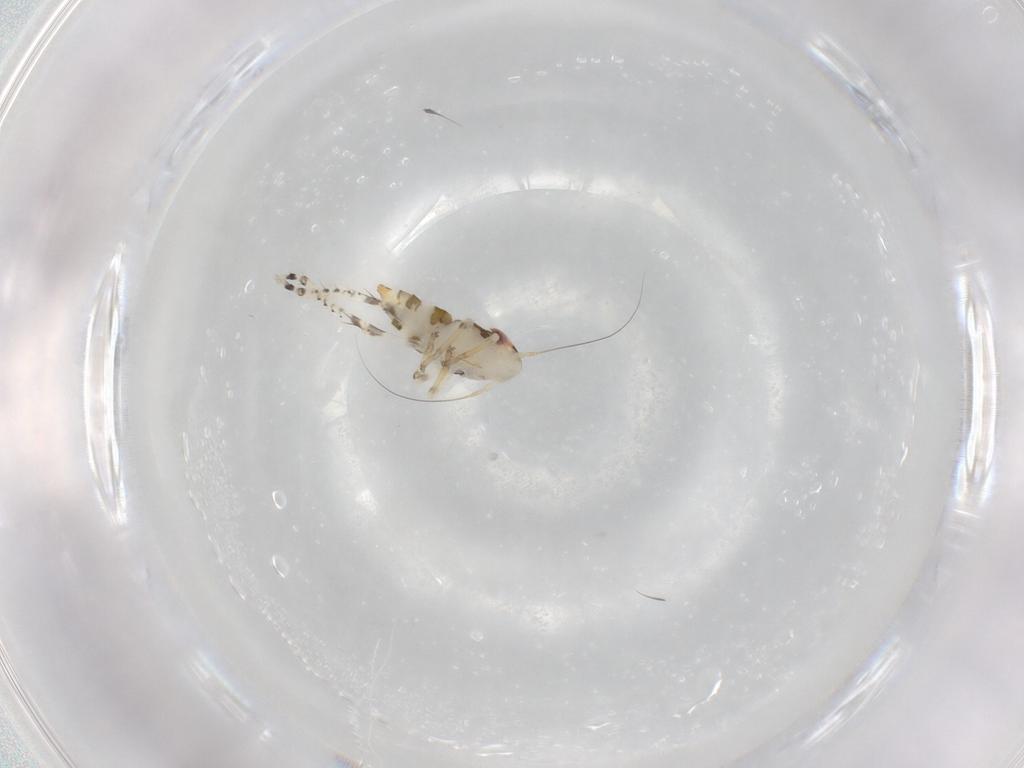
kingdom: Animalia
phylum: Arthropoda
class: Insecta
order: Hemiptera
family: Cicadellidae
